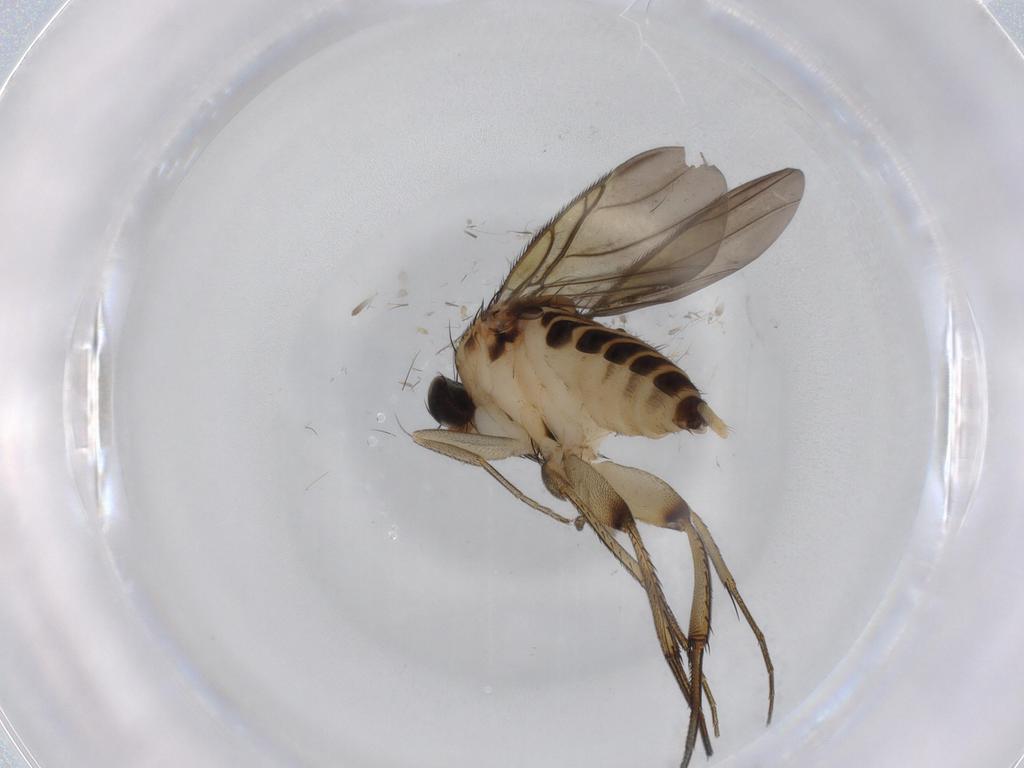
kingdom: Animalia
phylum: Arthropoda
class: Insecta
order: Diptera
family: Phoridae
